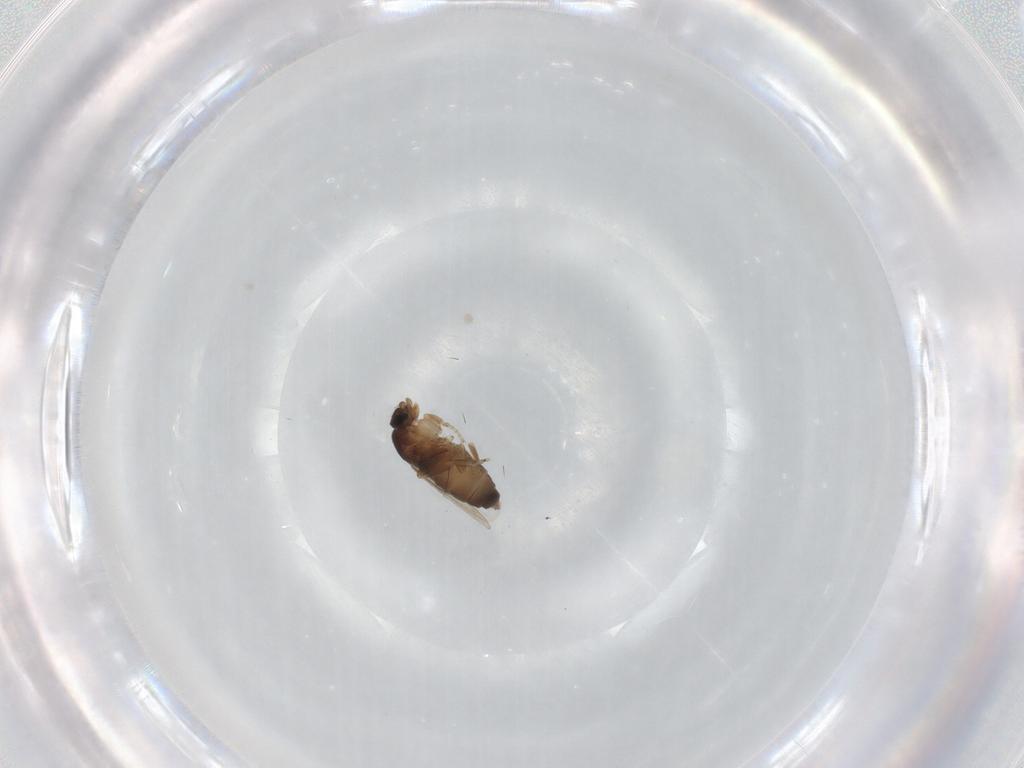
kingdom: Animalia
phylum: Arthropoda
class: Insecta
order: Diptera
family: Phoridae
